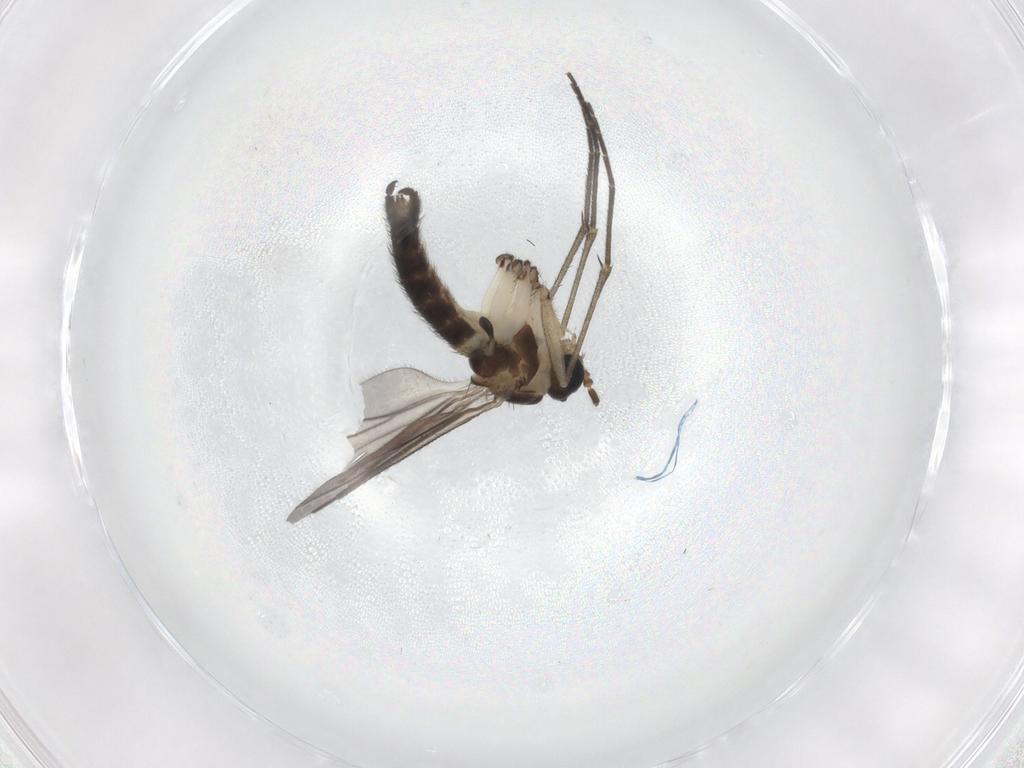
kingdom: Animalia
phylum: Arthropoda
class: Insecta
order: Diptera
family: Sciaridae
